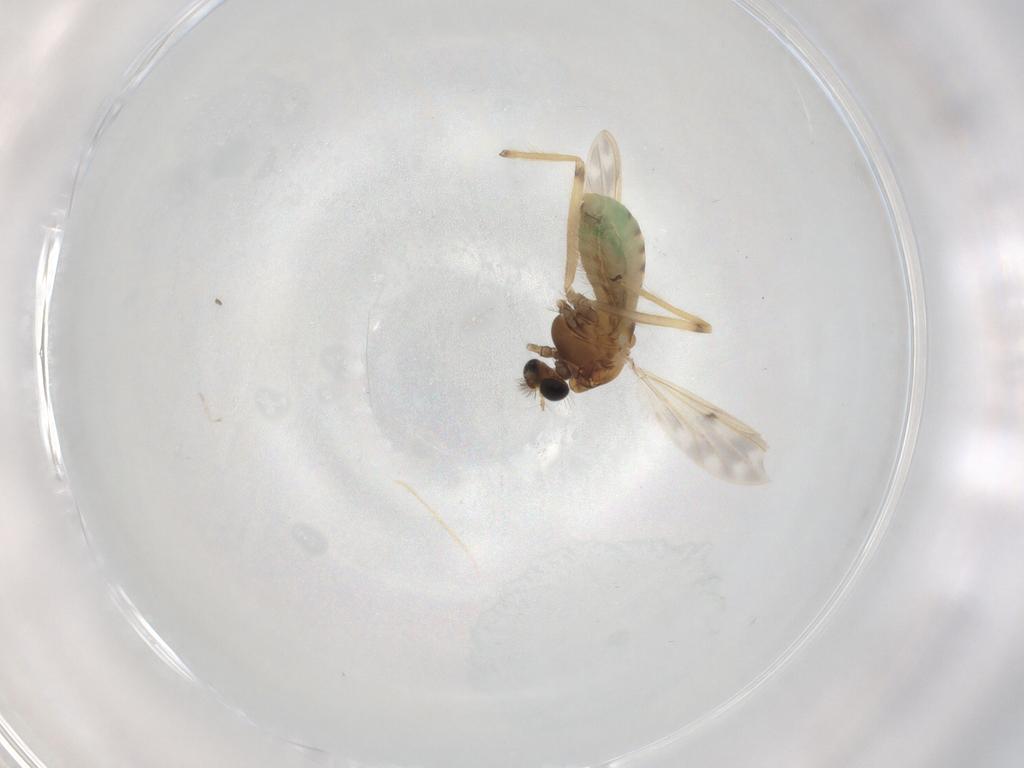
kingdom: Animalia
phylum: Arthropoda
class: Insecta
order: Diptera
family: Chironomidae
